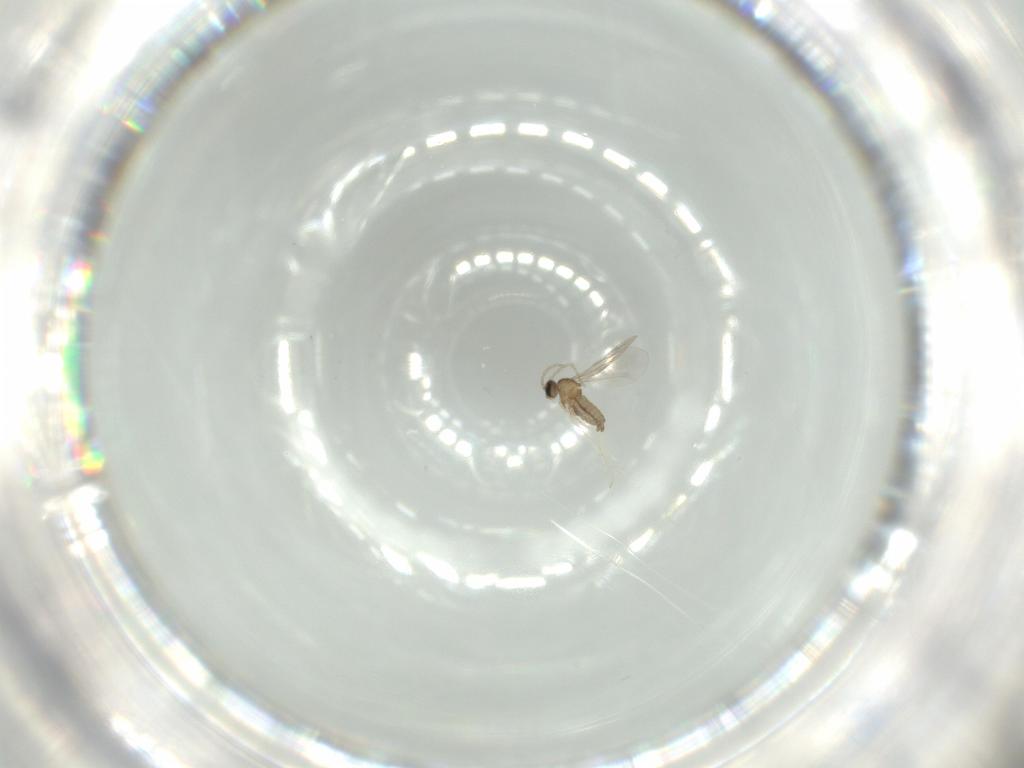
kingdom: Animalia
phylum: Arthropoda
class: Insecta
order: Diptera
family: Cecidomyiidae
